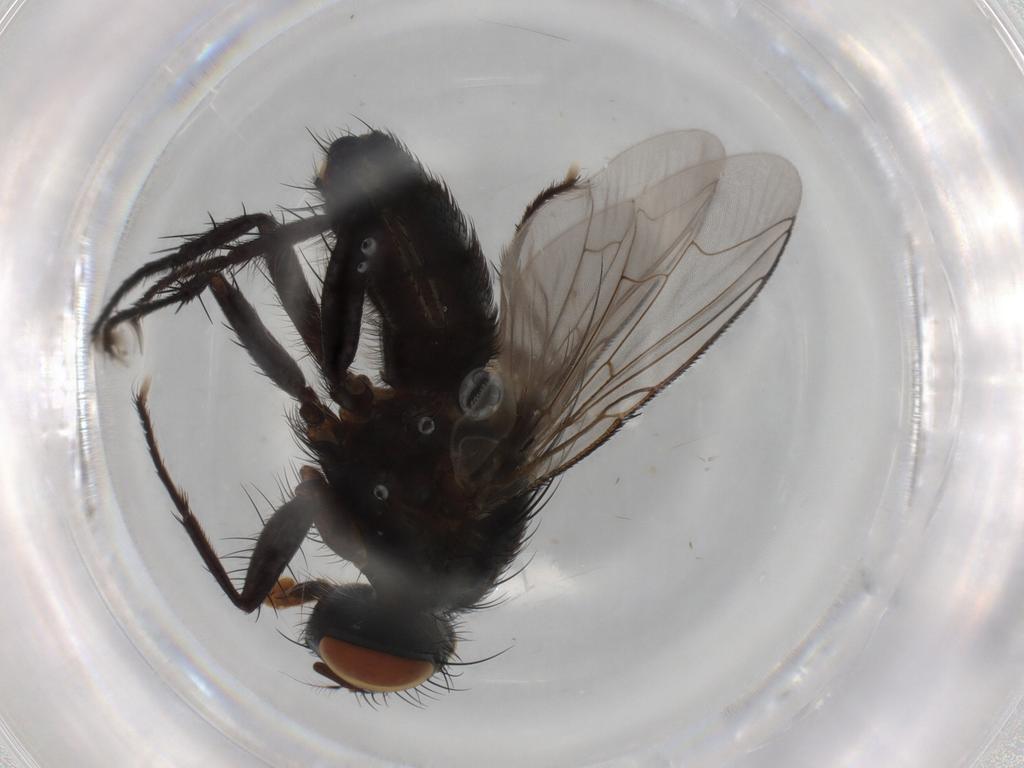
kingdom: Animalia
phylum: Arthropoda
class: Insecta
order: Diptera
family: Sarcophagidae
